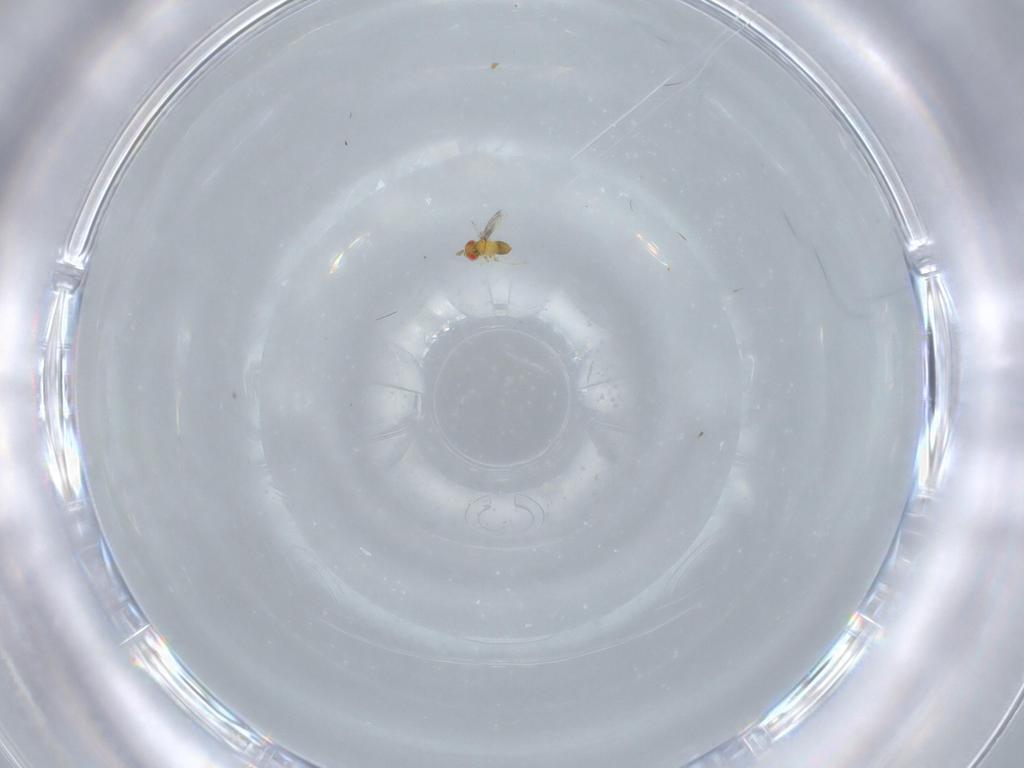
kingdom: Animalia
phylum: Arthropoda
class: Insecta
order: Hymenoptera
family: Trichogrammatidae
